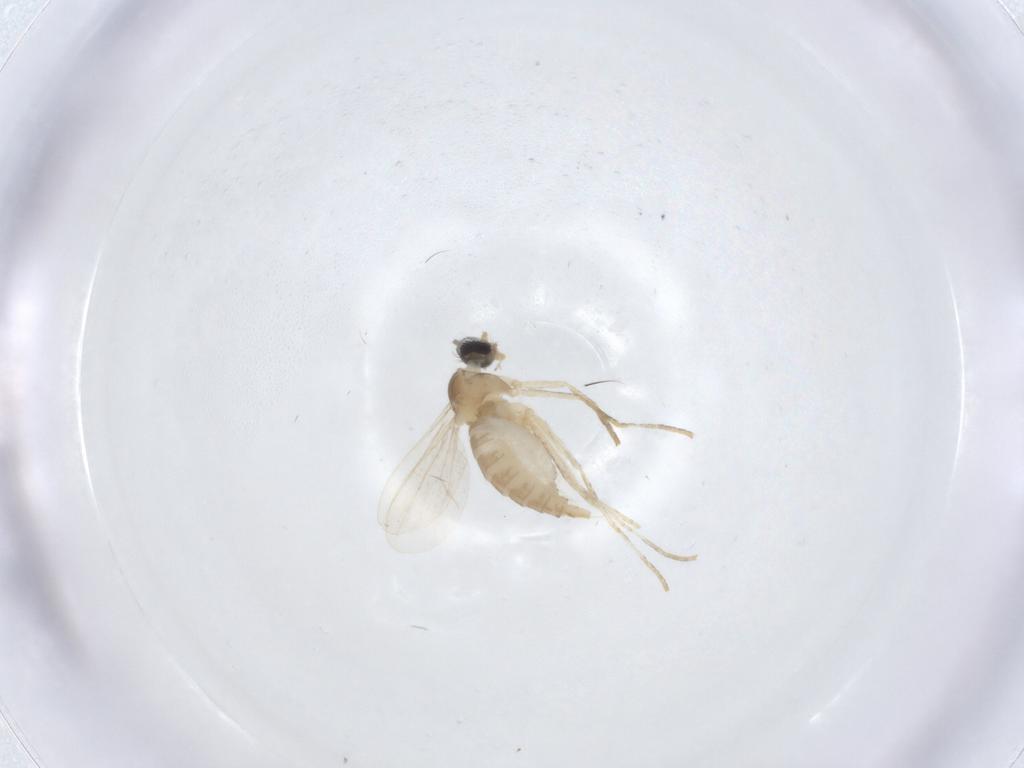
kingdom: Animalia
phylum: Arthropoda
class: Insecta
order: Diptera
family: Cecidomyiidae
